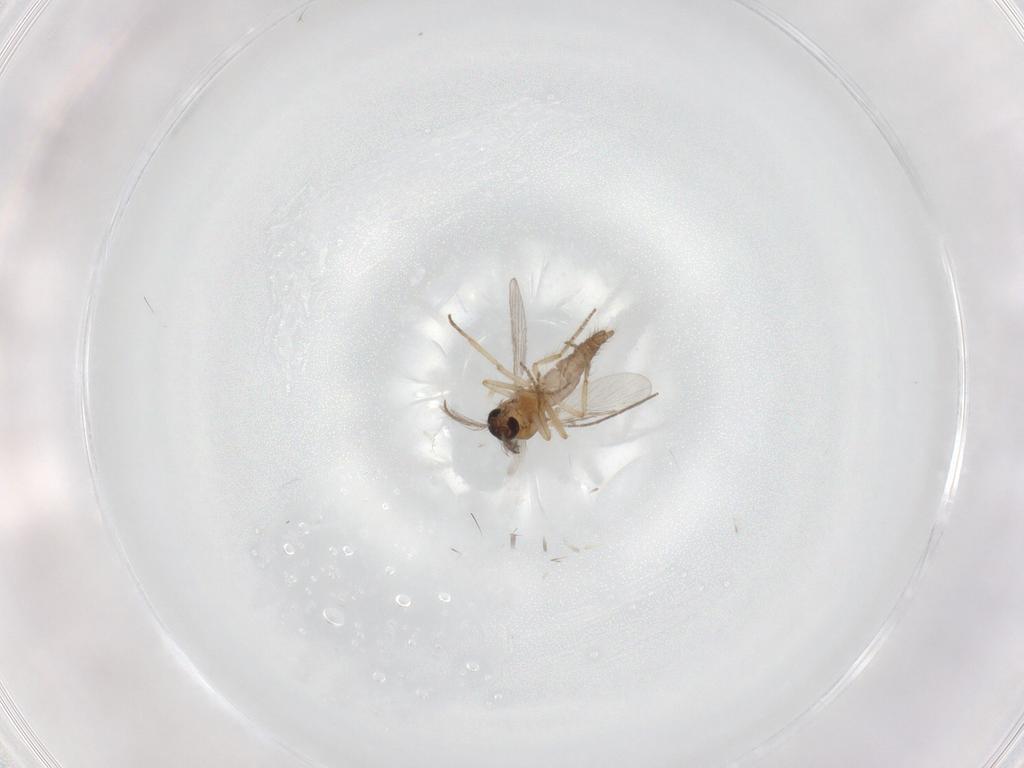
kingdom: Animalia
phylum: Arthropoda
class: Insecta
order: Diptera
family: Chironomidae
